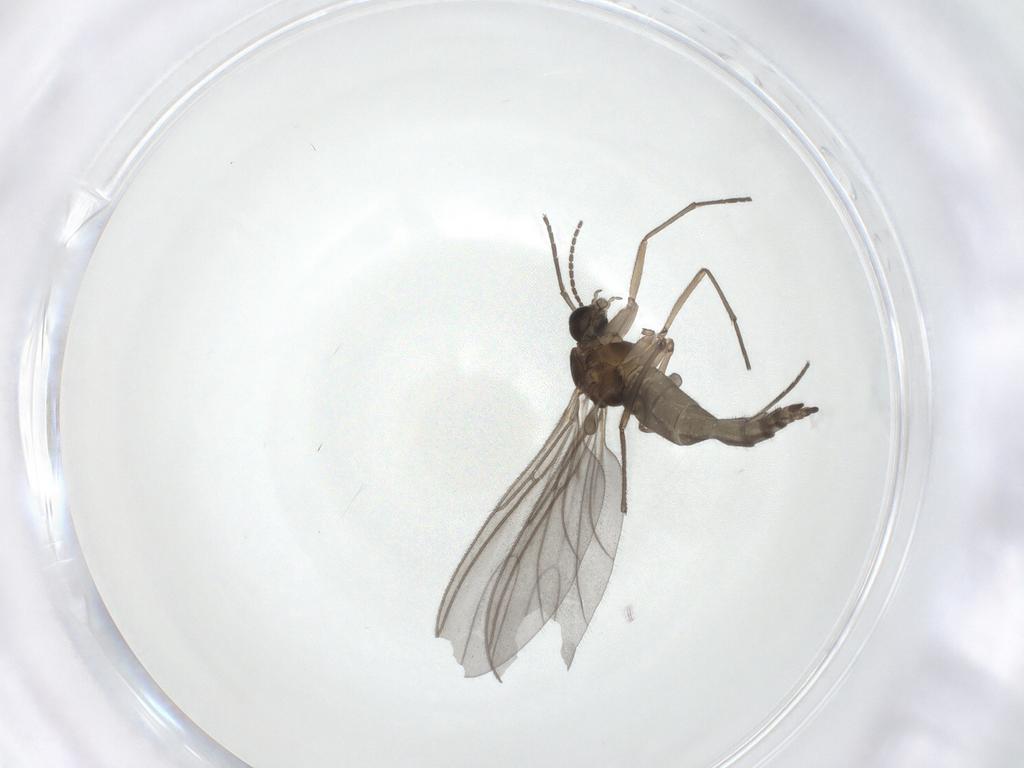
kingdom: Animalia
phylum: Arthropoda
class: Insecta
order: Diptera
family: Sciaridae
